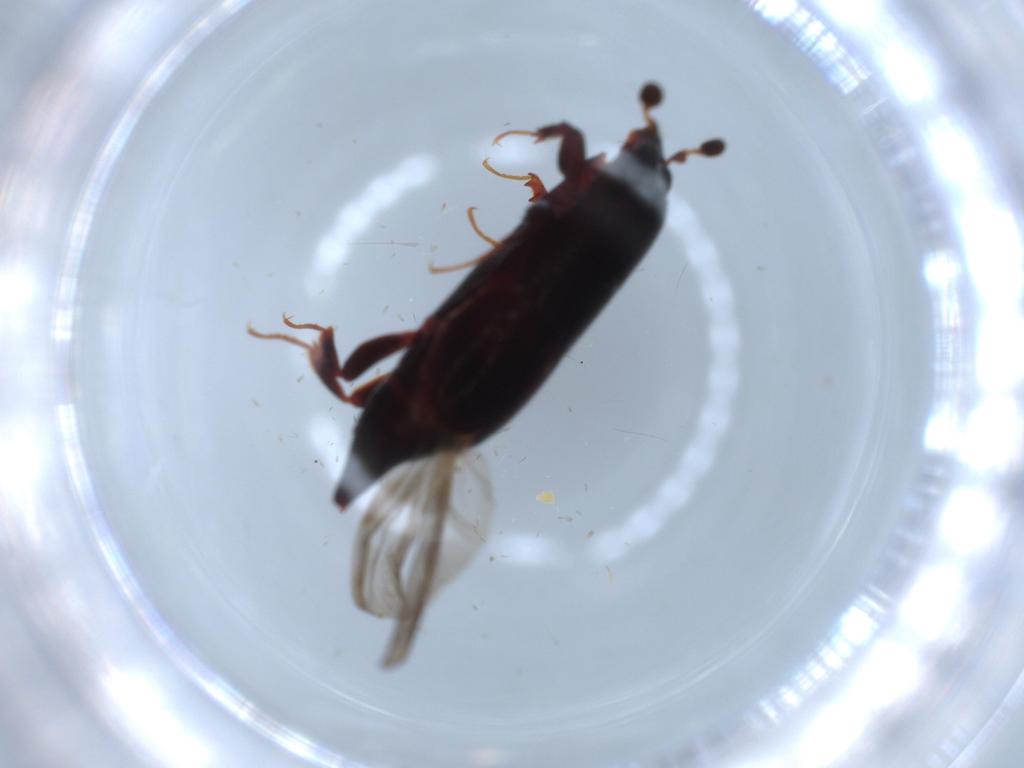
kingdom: Animalia
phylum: Arthropoda
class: Insecta
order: Coleoptera
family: Histeridae
